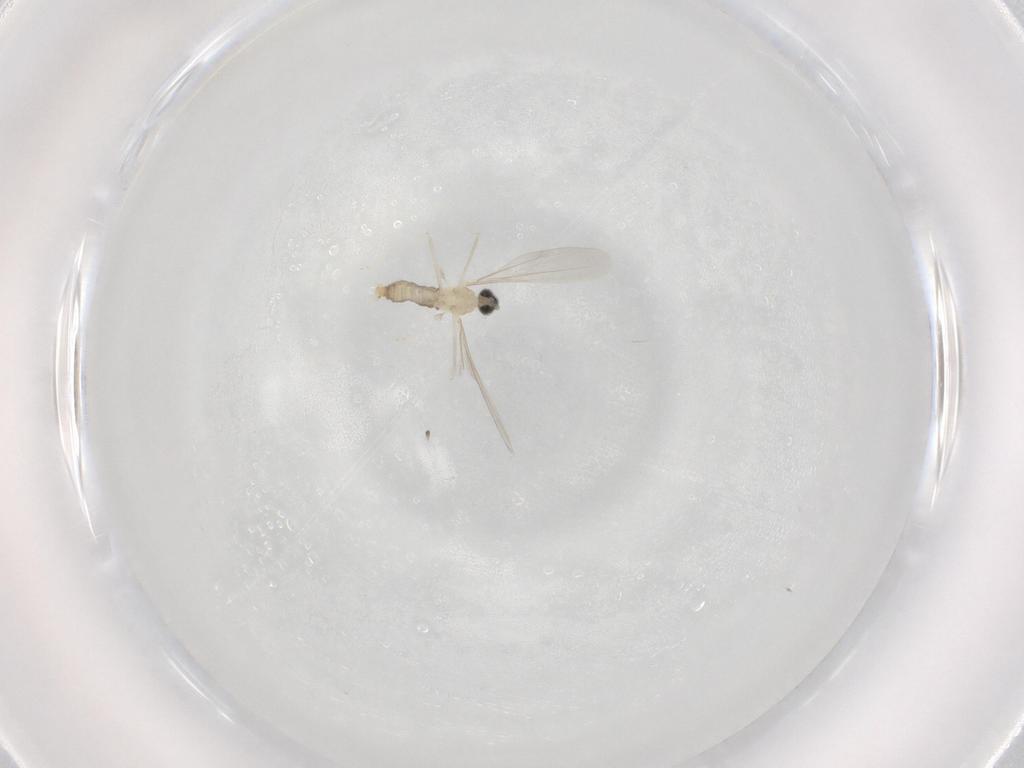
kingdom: Animalia
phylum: Arthropoda
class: Insecta
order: Diptera
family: Cecidomyiidae
